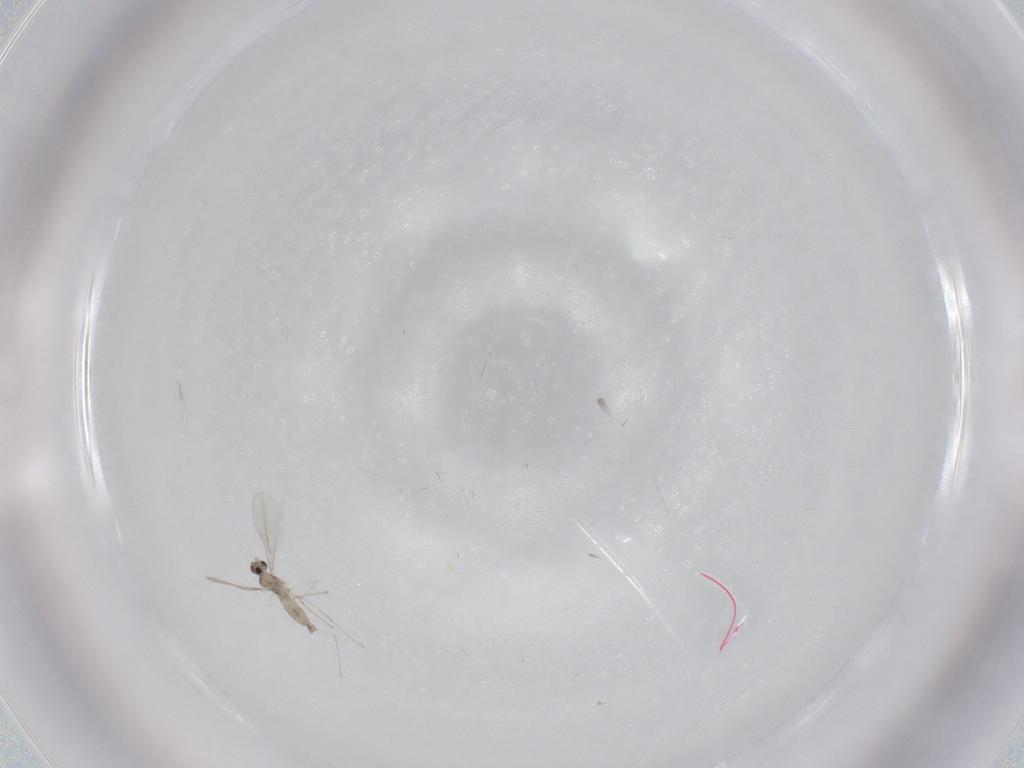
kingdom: Animalia
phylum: Arthropoda
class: Insecta
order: Diptera
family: Cecidomyiidae
